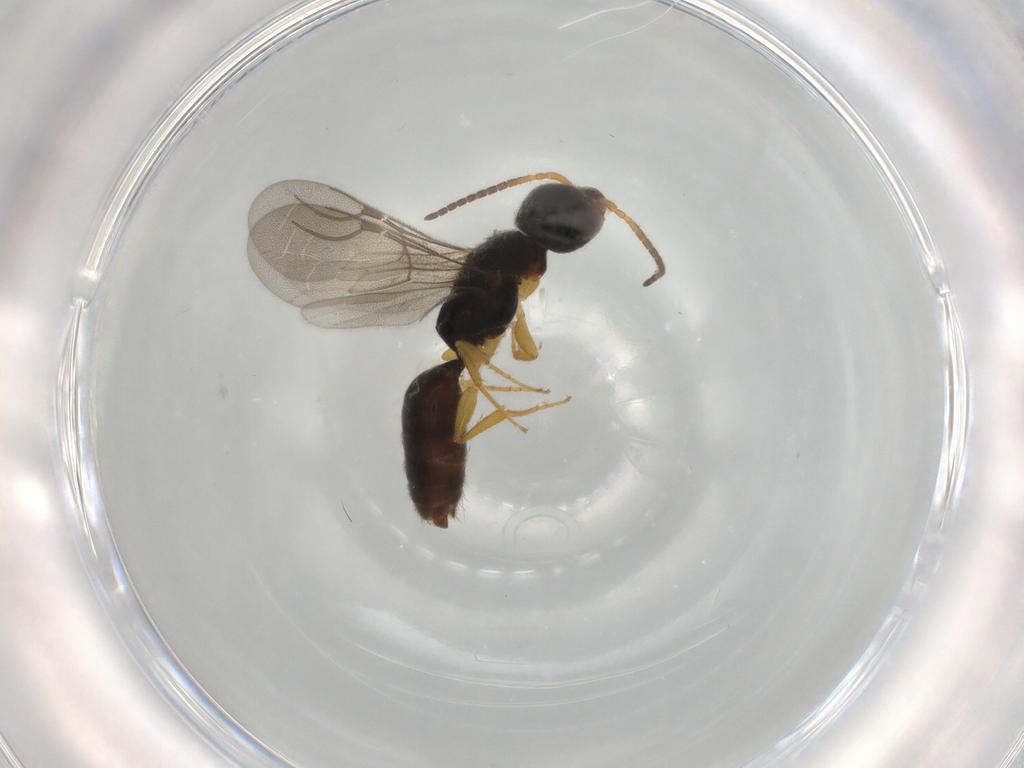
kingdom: Animalia
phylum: Arthropoda
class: Insecta
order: Hymenoptera
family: Bethylidae
